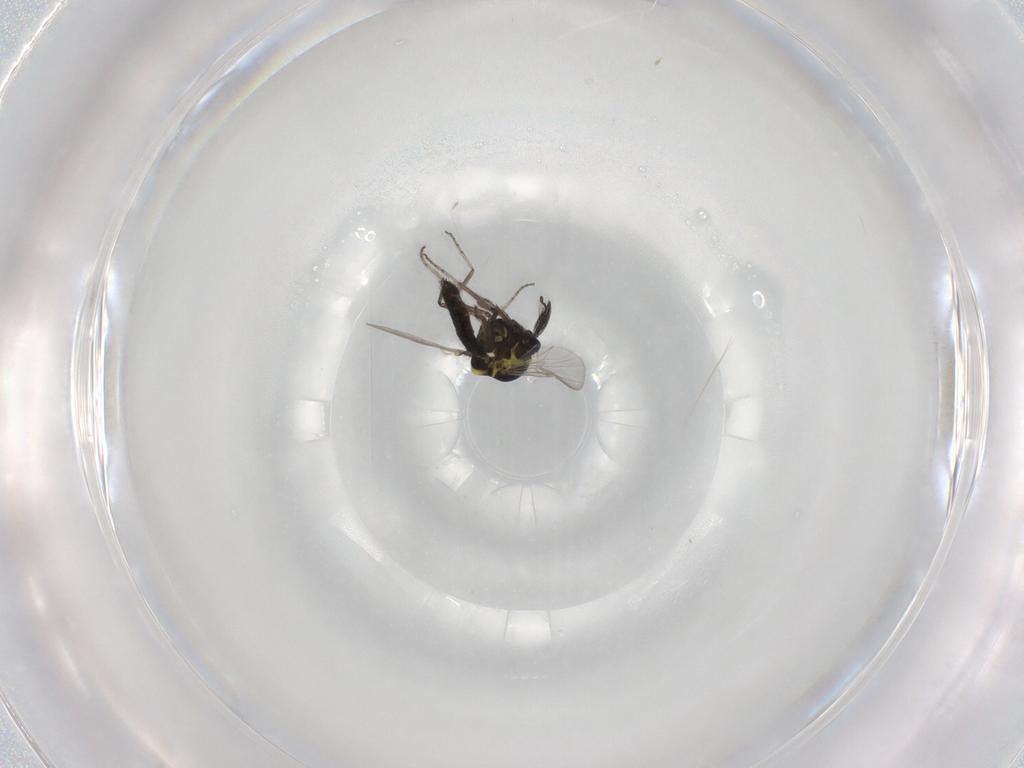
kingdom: Animalia
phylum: Arthropoda
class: Insecta
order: Diptera
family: Ceratopogonidae
